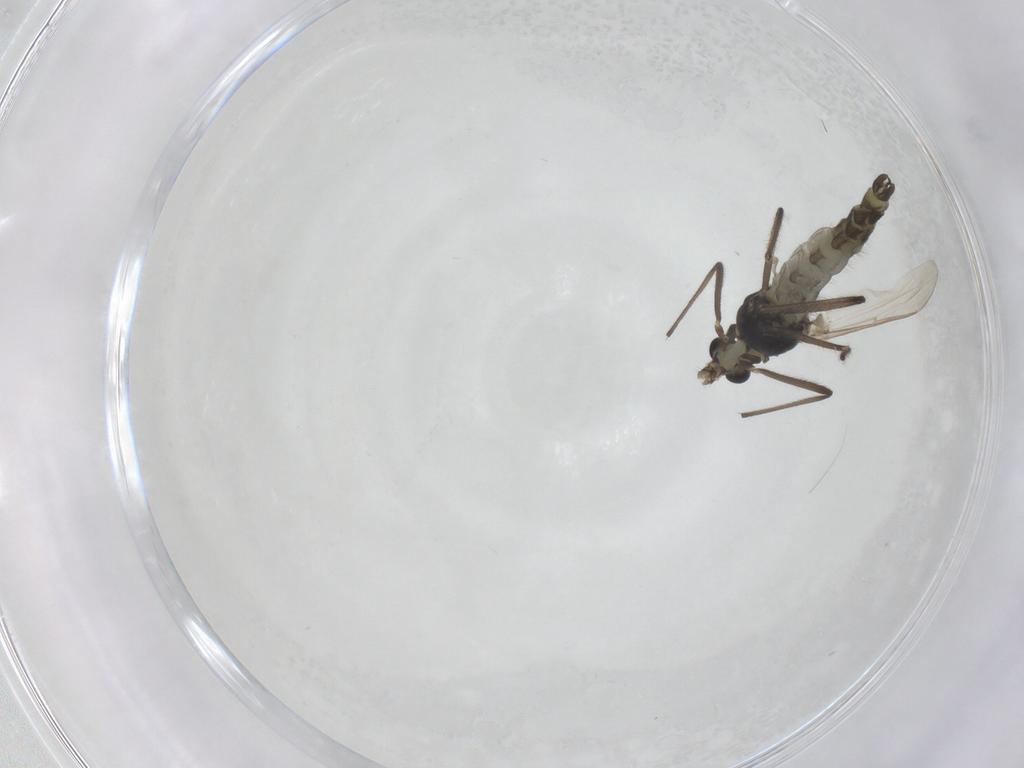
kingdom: Animalia
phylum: Arthropoda
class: Insecta
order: Diptera
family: Chironomidae
